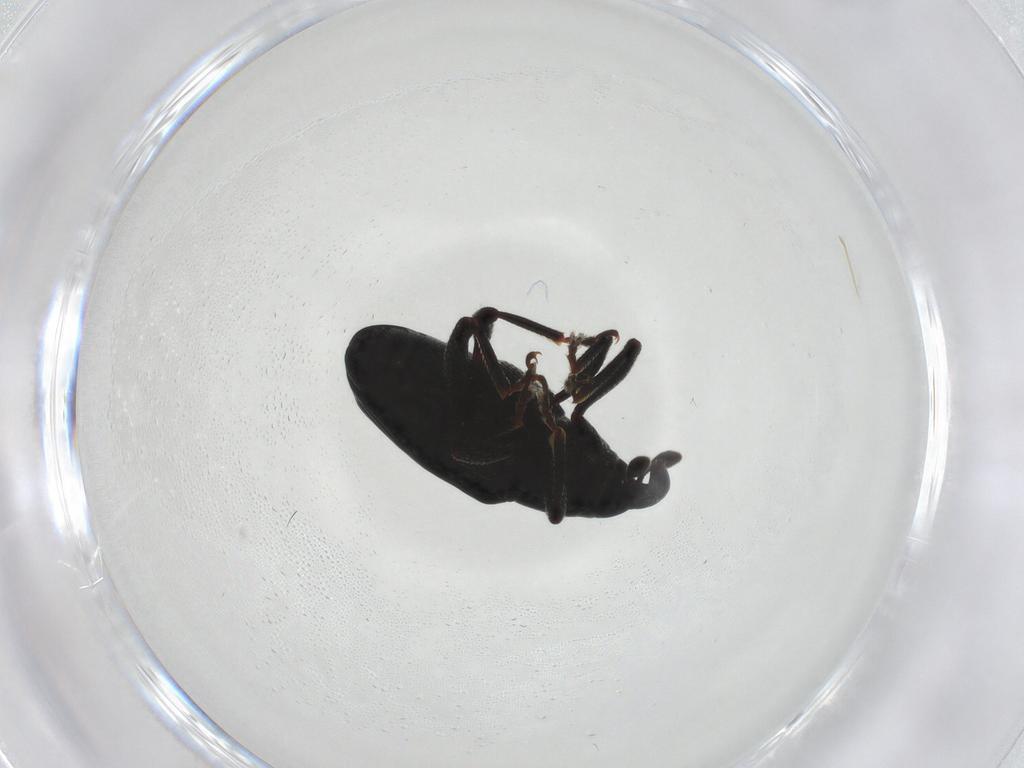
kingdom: Animalia
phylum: Arthropoda
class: Insecta
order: Coleoptera
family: Curculionidae
